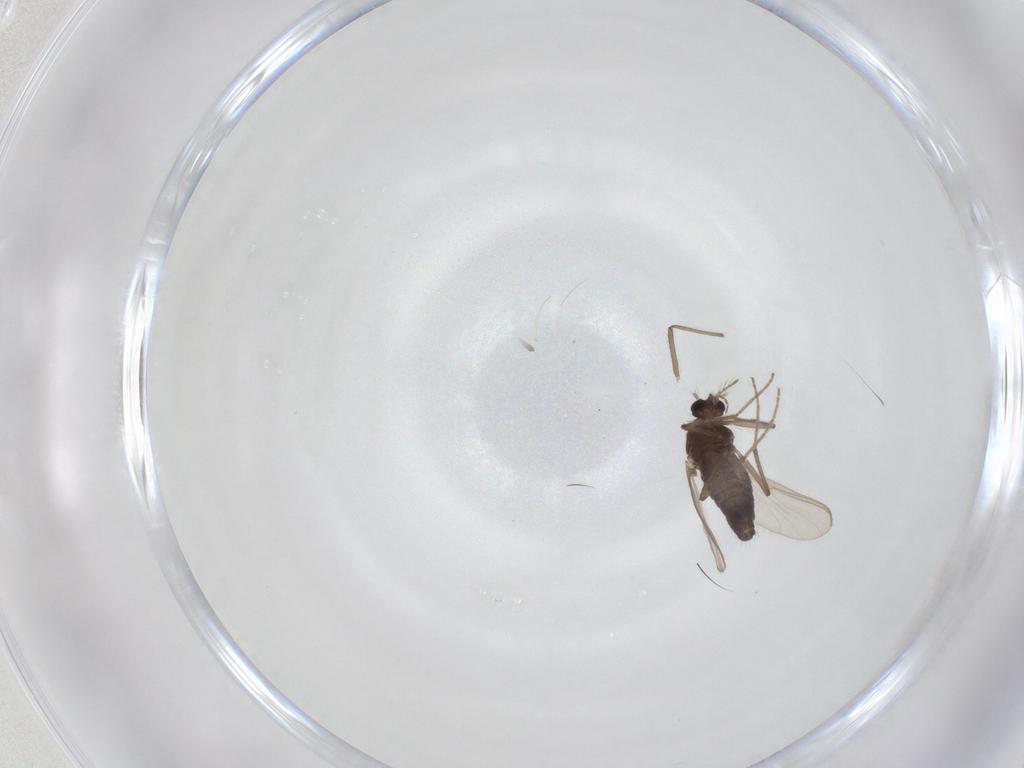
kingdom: Animalia
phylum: Arthropoda
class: Insecta
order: Diptera
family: Chironomidae
